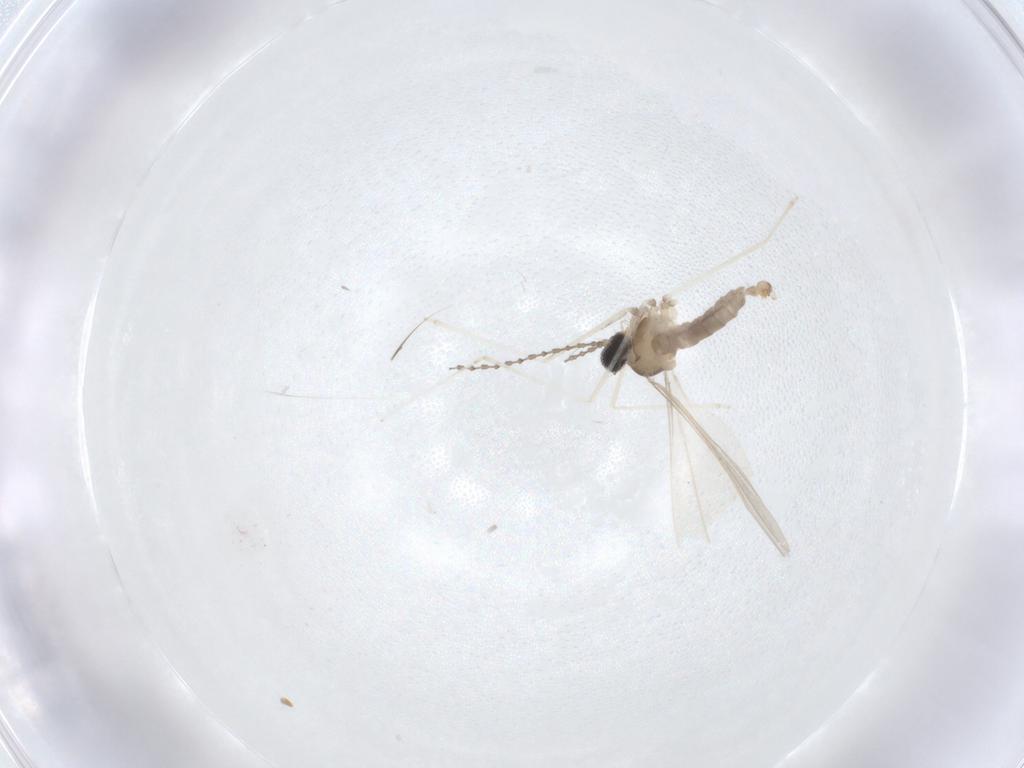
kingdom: Animalia
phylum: Arthropoda
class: Insecta
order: Diptera
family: Cecidomyiidae
